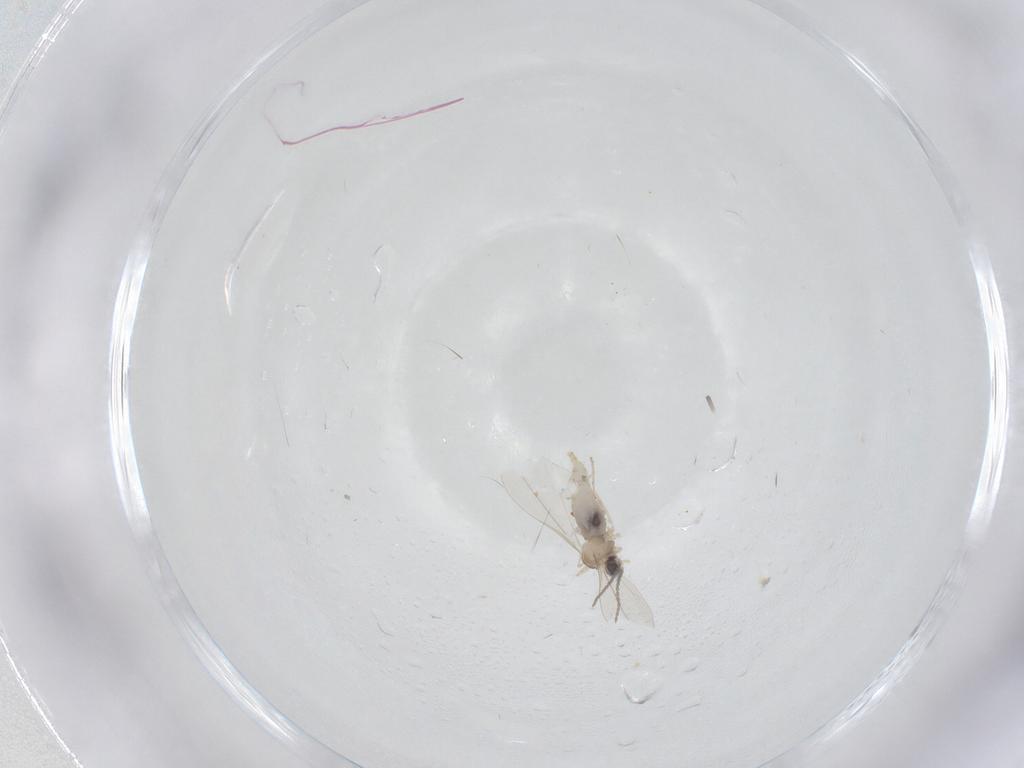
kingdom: Animalia
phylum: Arthropoda
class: Insecta
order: Diptera
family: Chironomidae
